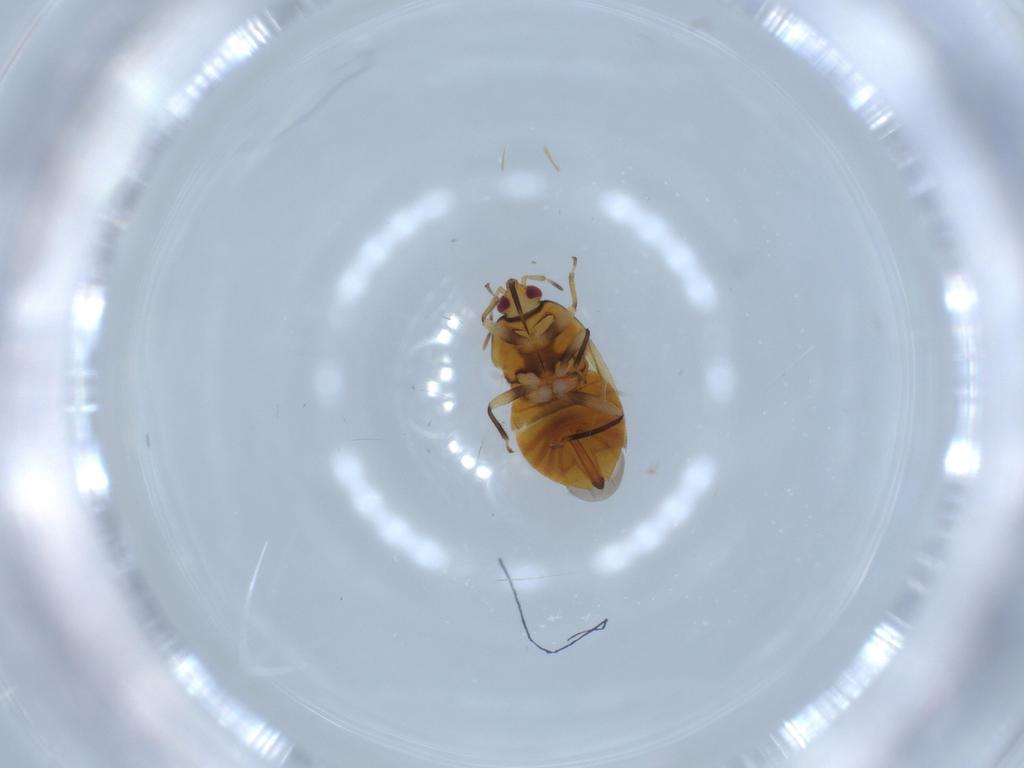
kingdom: Animalia
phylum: Arthropoda
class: Insecta
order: Hemiptera
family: Anthocoridae
